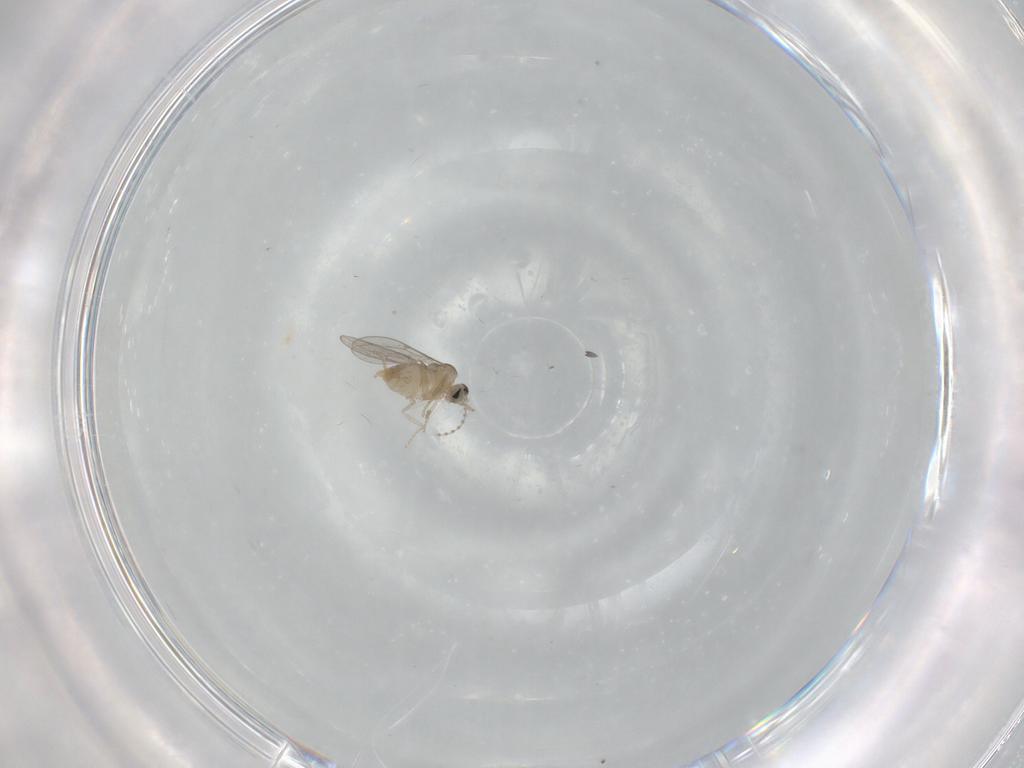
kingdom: Animalia
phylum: Arthropoda
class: Insecta
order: Diptera
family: Cecidomyiidae
